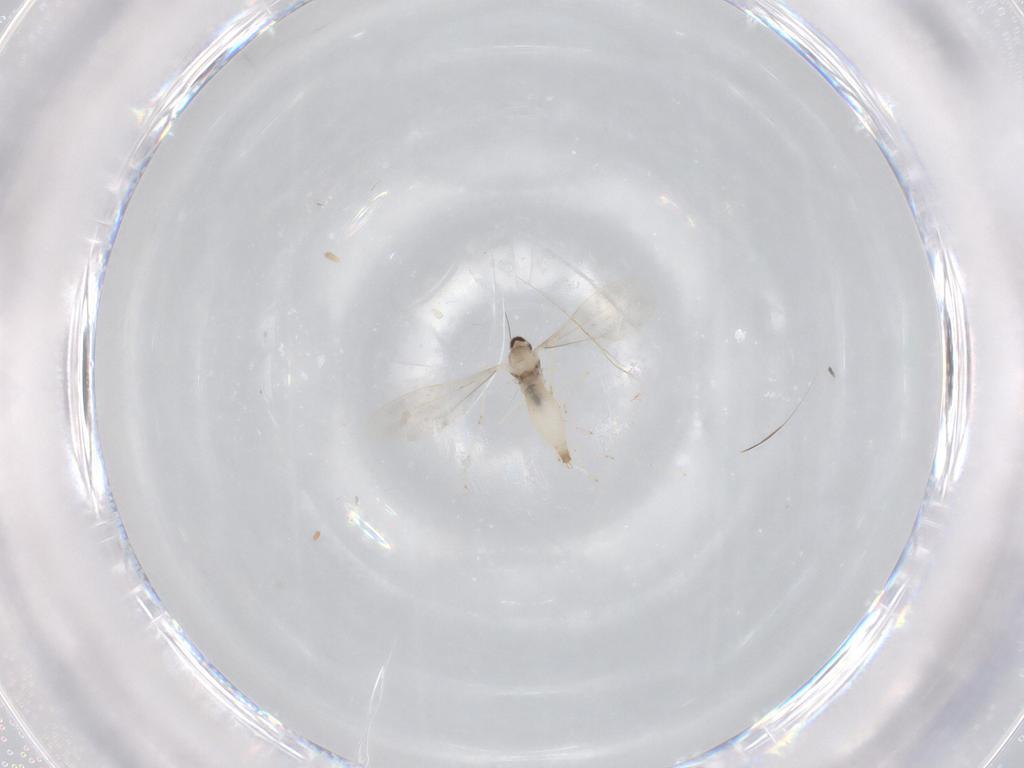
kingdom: Animalia
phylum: Arthropoda
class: Insecta
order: Diptera
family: Cecidomyiidae
